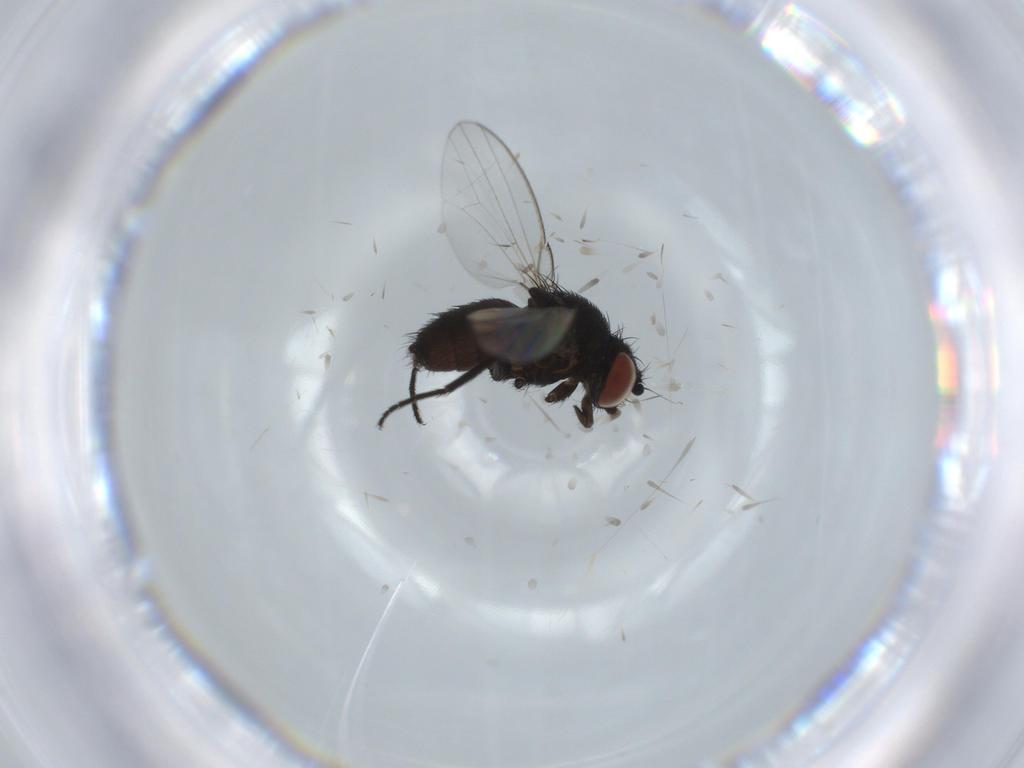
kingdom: Animalia
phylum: Arthropoda
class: Insecta
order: Diptera
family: Milichiidae
